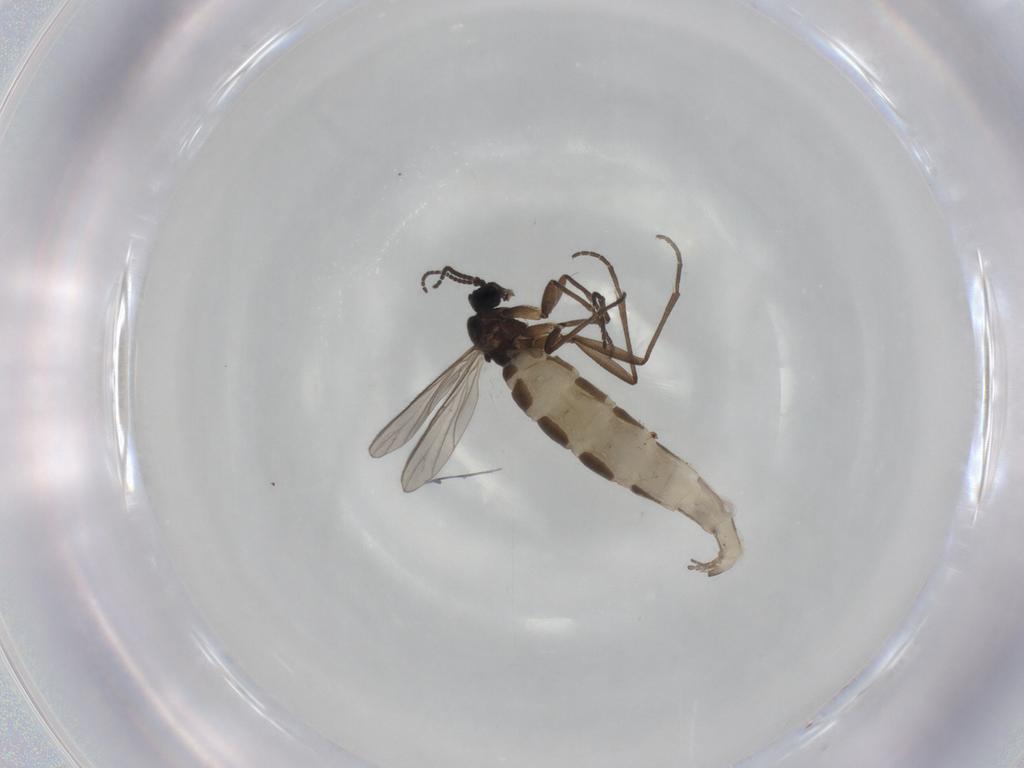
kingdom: Animalia
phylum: Arthropoda
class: Insecta
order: Diptera
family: Sciaridae
